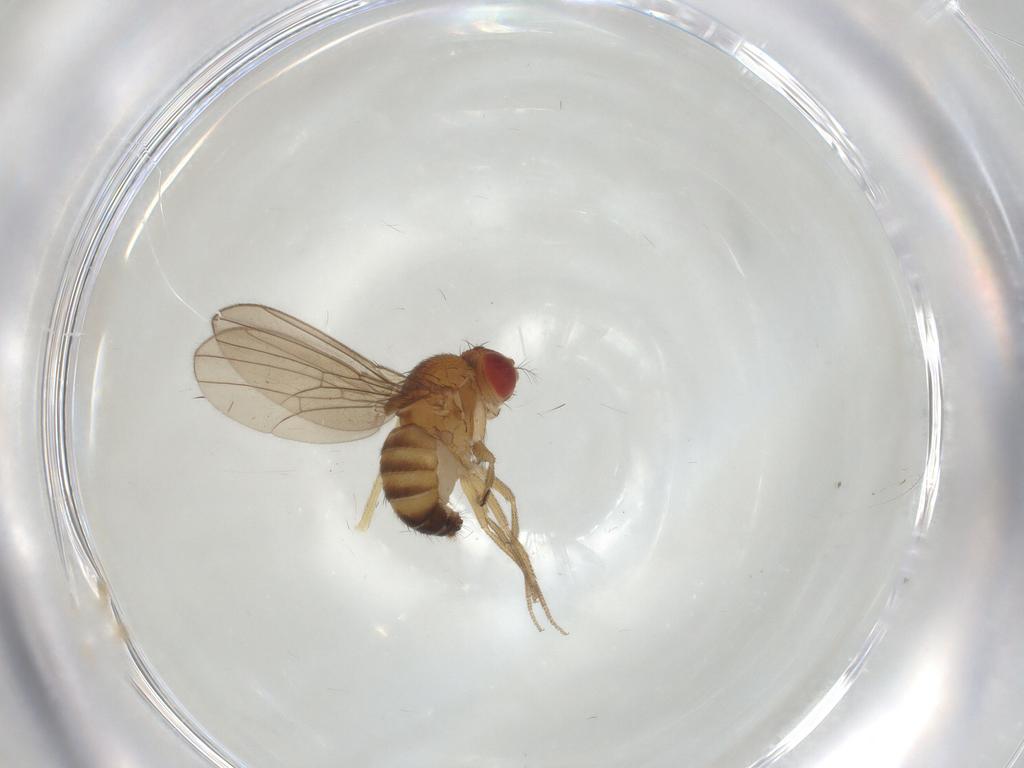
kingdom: Animalia
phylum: Arthropoda
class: Insecta
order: Diptera
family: Drosophilidae
